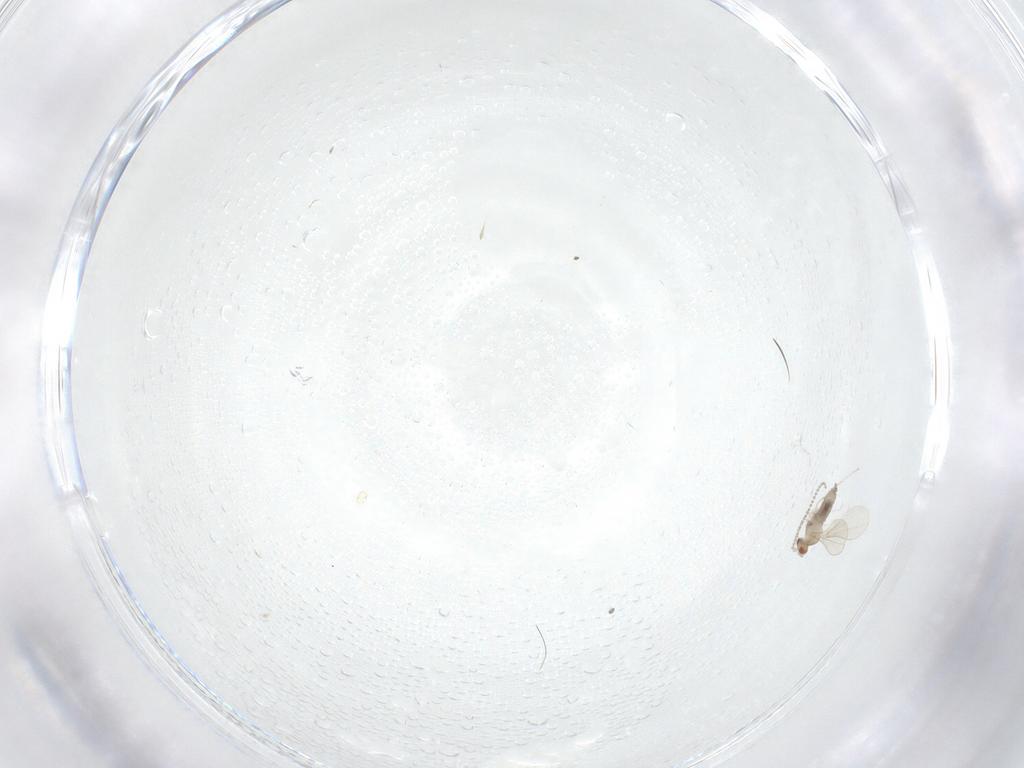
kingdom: Animalia
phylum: Arthropoda
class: Insecta
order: Diptera
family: Cecidomyiidae
